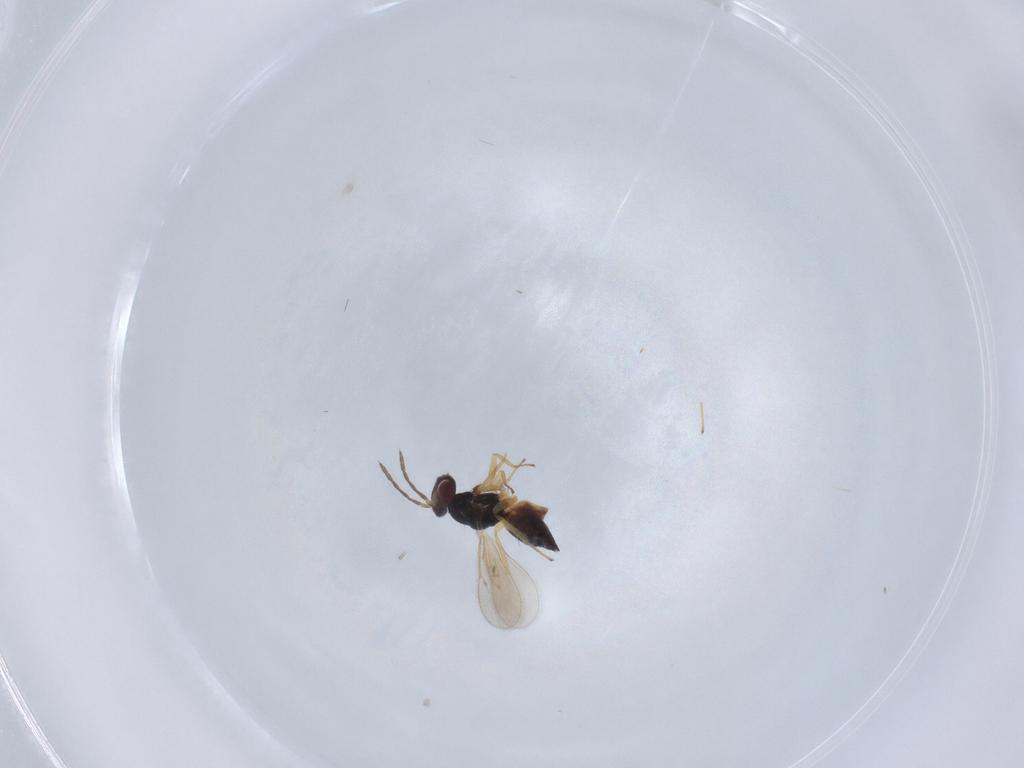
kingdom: Animalia
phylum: Arthropoda
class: Insecta
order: Hymenoptera
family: Eulophidae
